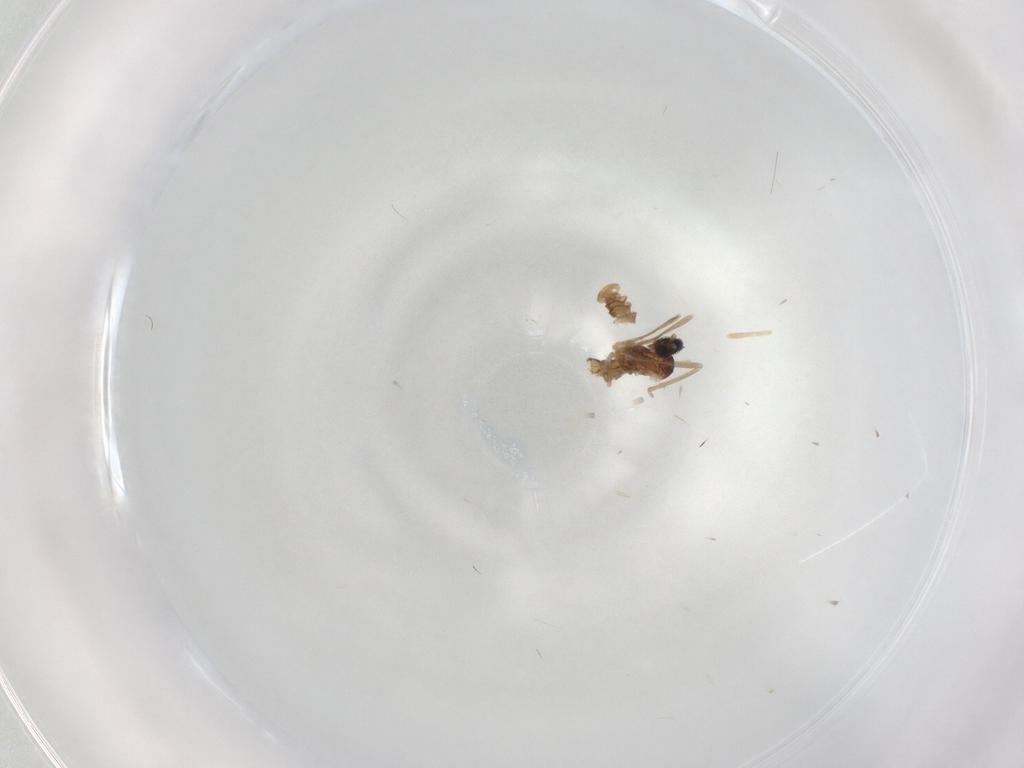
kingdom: Animalia
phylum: Arthropoda
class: Insecta
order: Diptera
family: Cecidomyiidae
